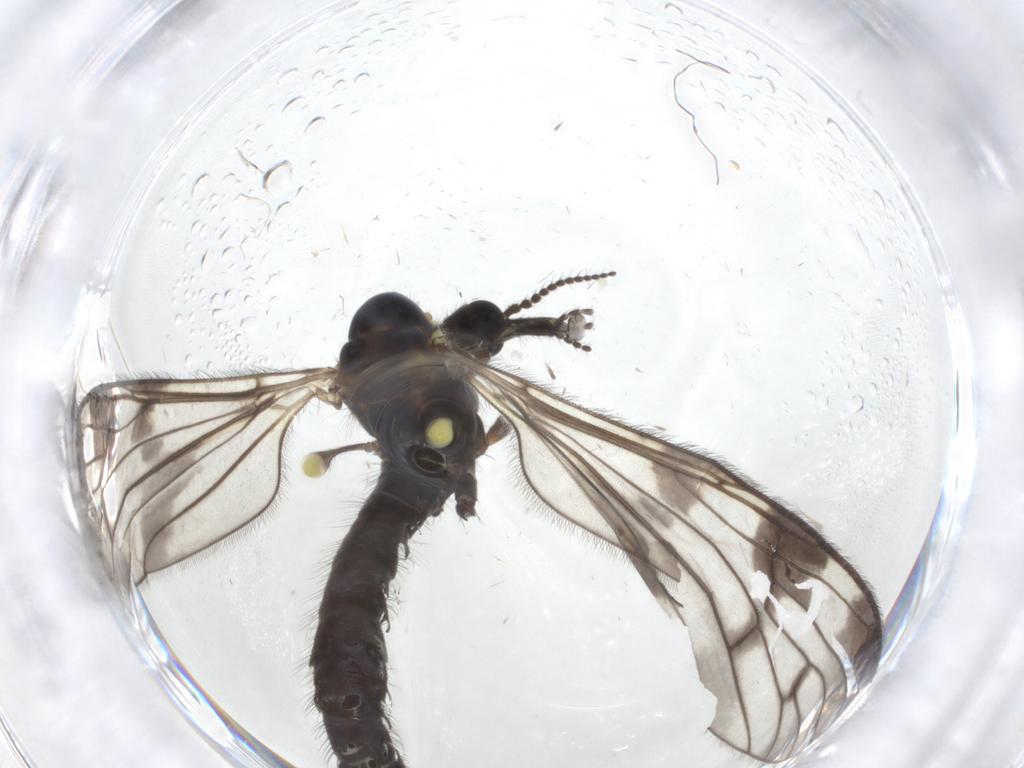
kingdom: Animalia
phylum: Arthropoda
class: Insecta
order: Diptera
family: Limoniidae
